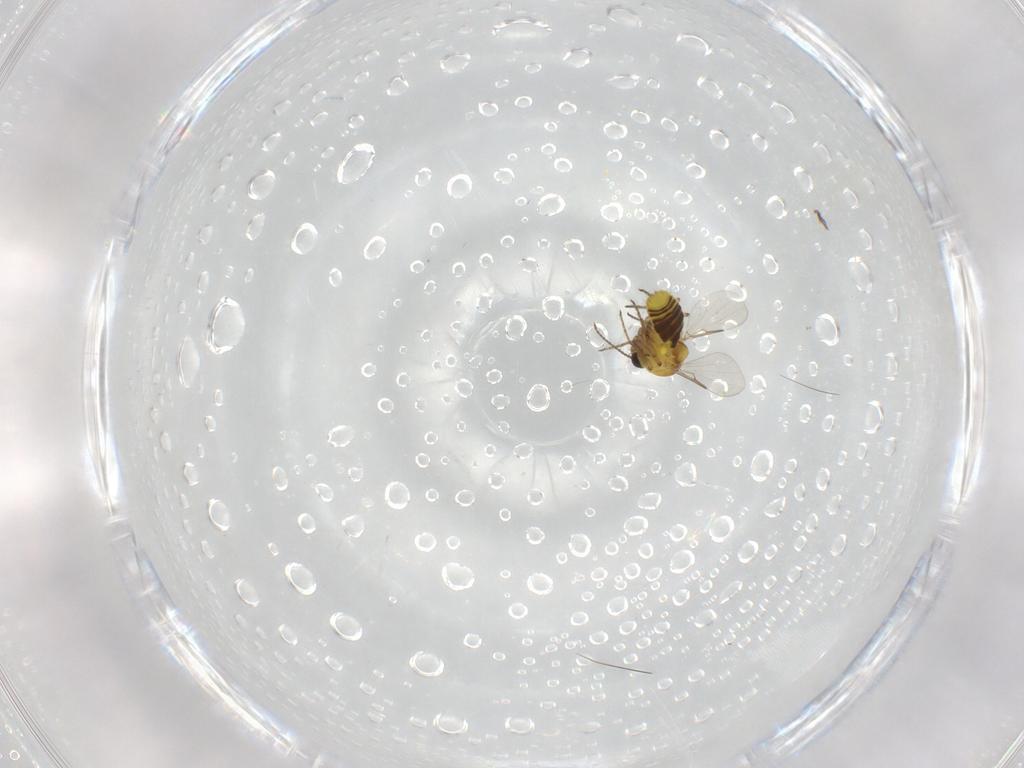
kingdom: Animalia
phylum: Arthropoda
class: Insecta
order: Diptera
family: Ceratopogonidae
